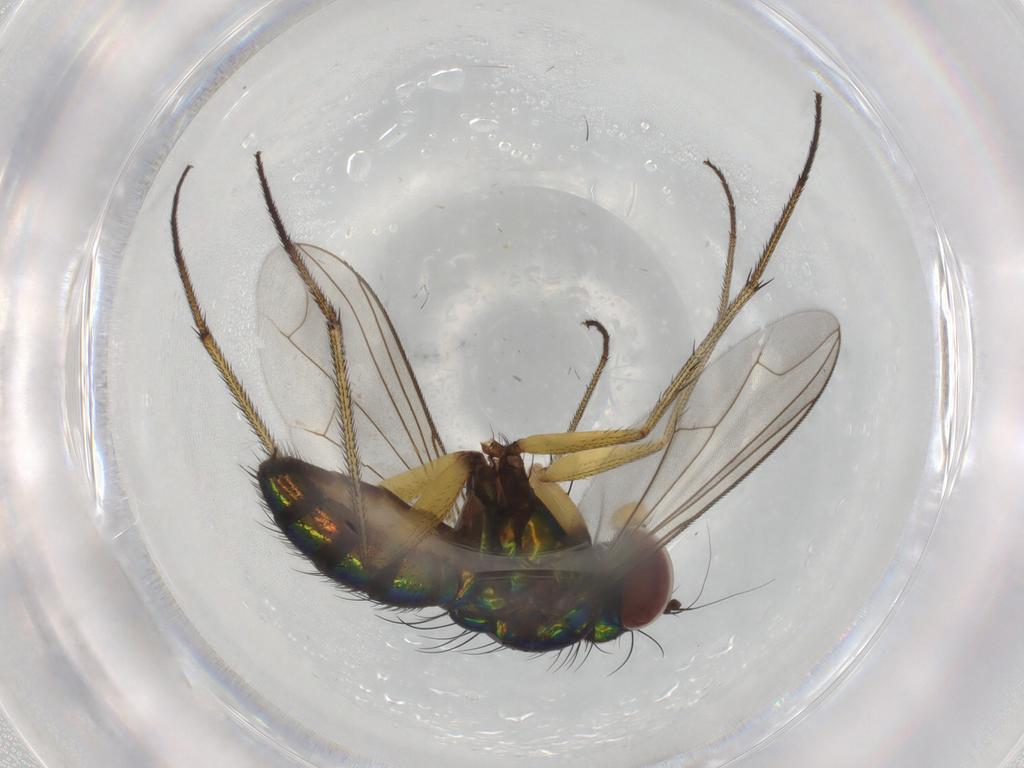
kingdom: Animalia
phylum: Arthropoda
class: Insecta
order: Diptera
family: Dolichopodidae
